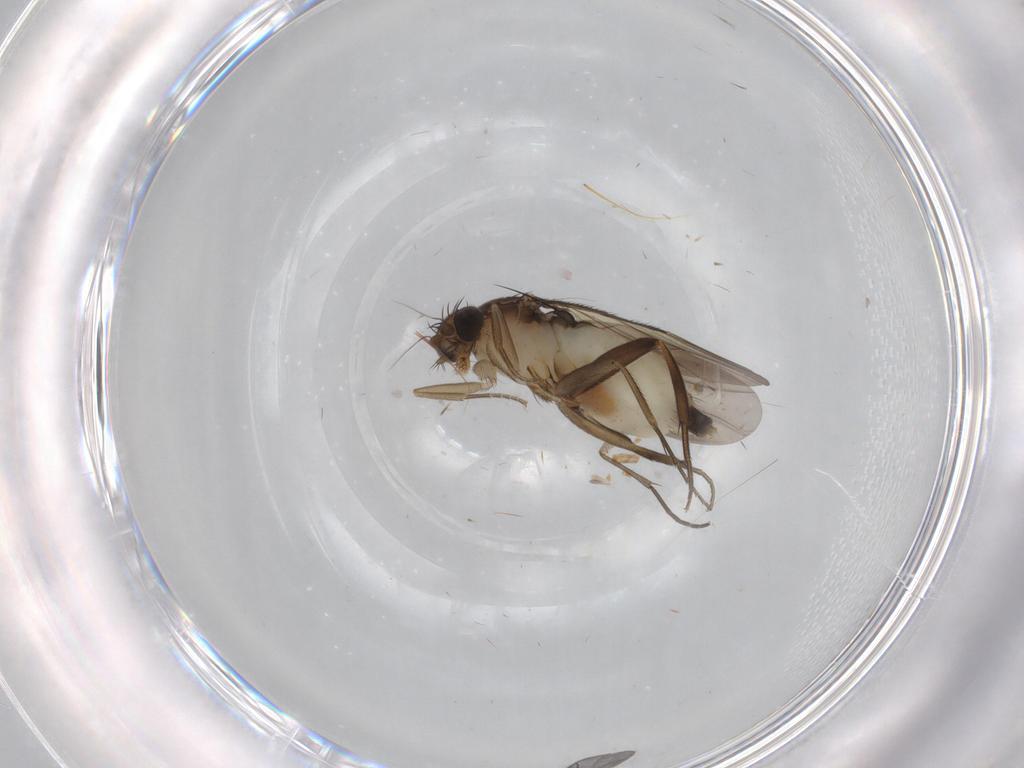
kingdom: Animalia
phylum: Arthropoda
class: Insecta
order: Diptera
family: Phoridae
